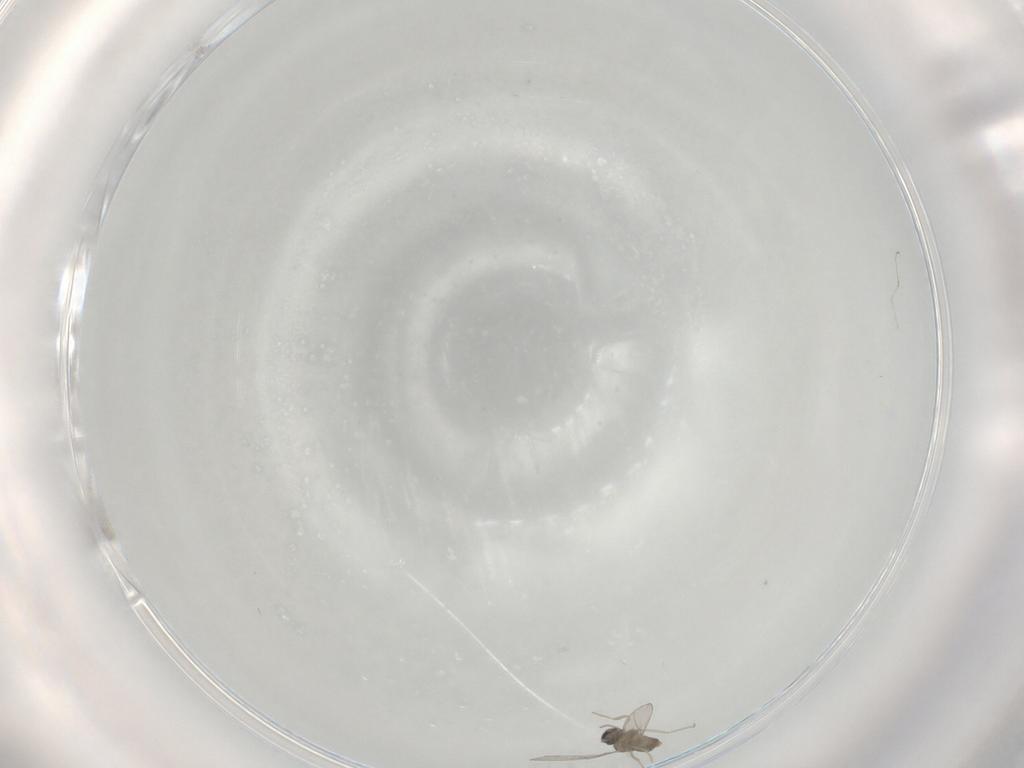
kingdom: Animalia
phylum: Arthropoda
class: Insecta
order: Diptera
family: Cecidomyiidae
